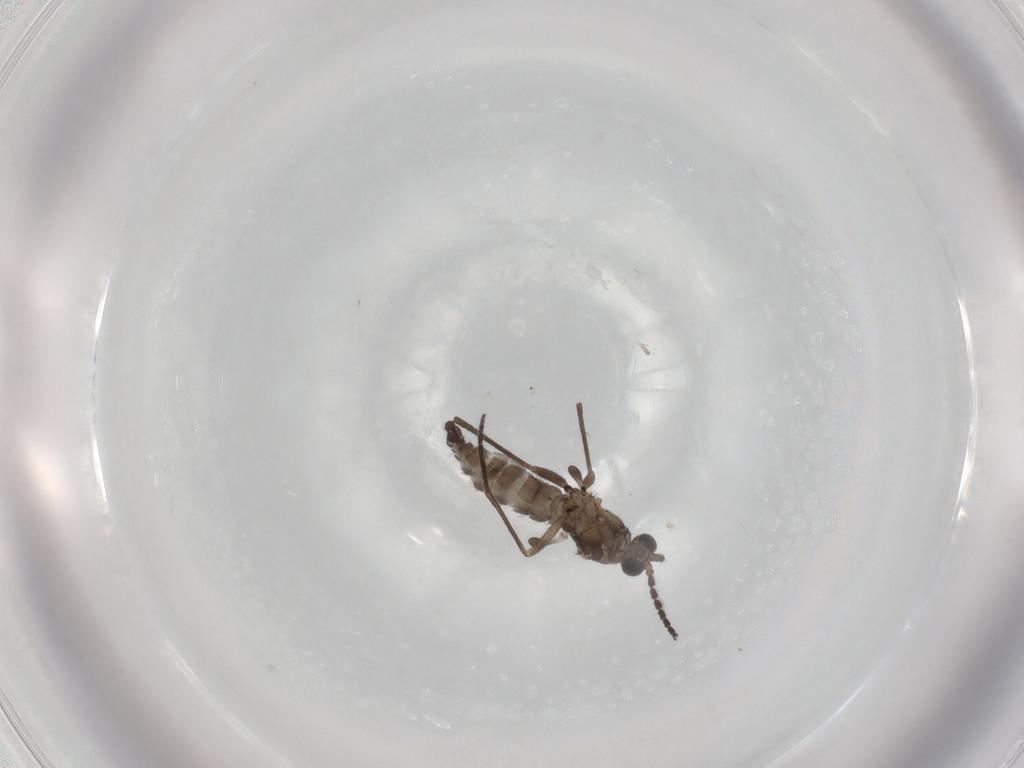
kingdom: Animalia
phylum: Arthropoda
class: Insecta
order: Diptera
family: Sciaridae
